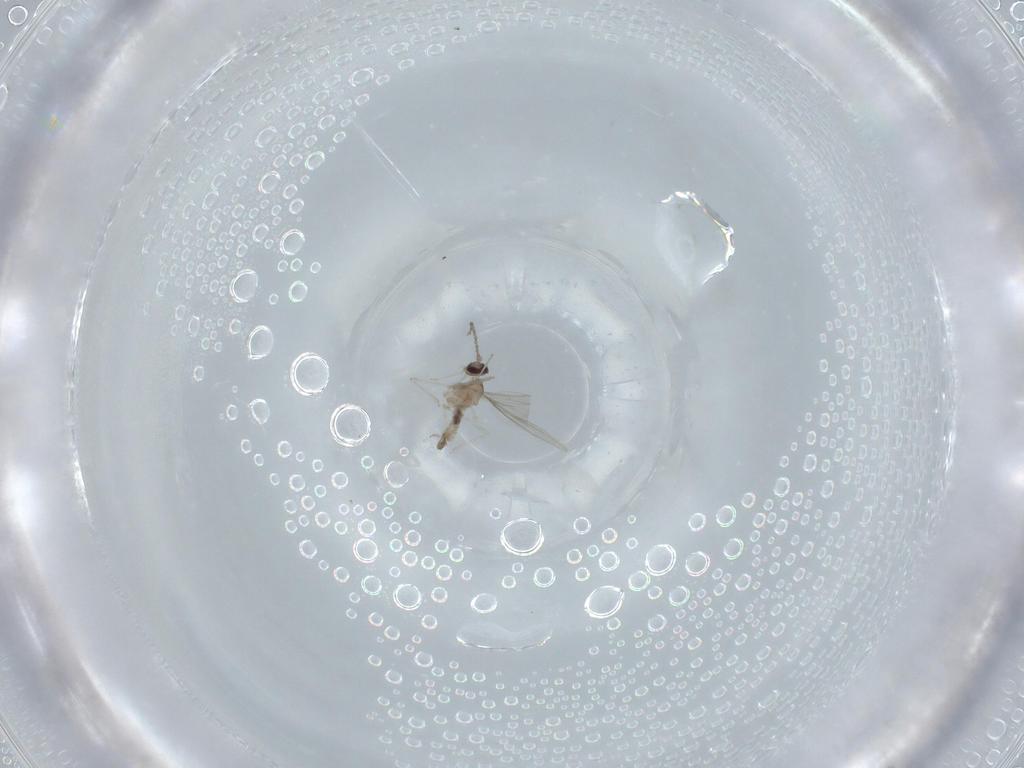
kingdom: Animalia
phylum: Arthropoda
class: Insecta
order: Diptera
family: Cecidomyiidae
